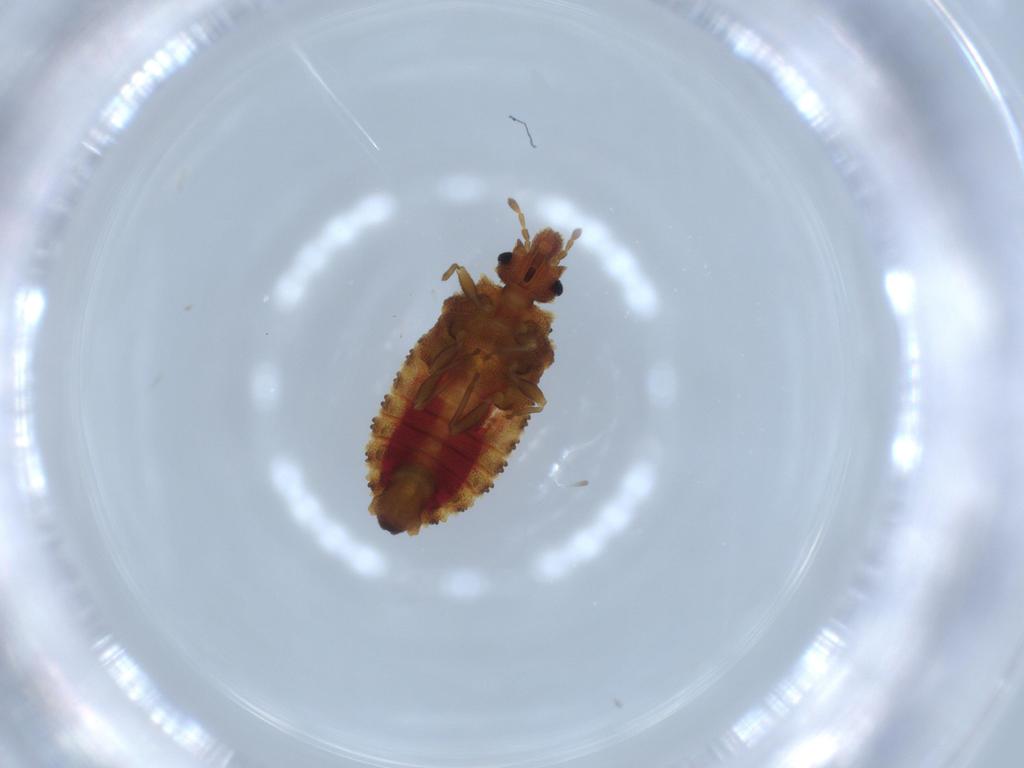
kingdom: Animalia
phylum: Arthropoda
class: Insecta
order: Hemiptera
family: Aradidae
